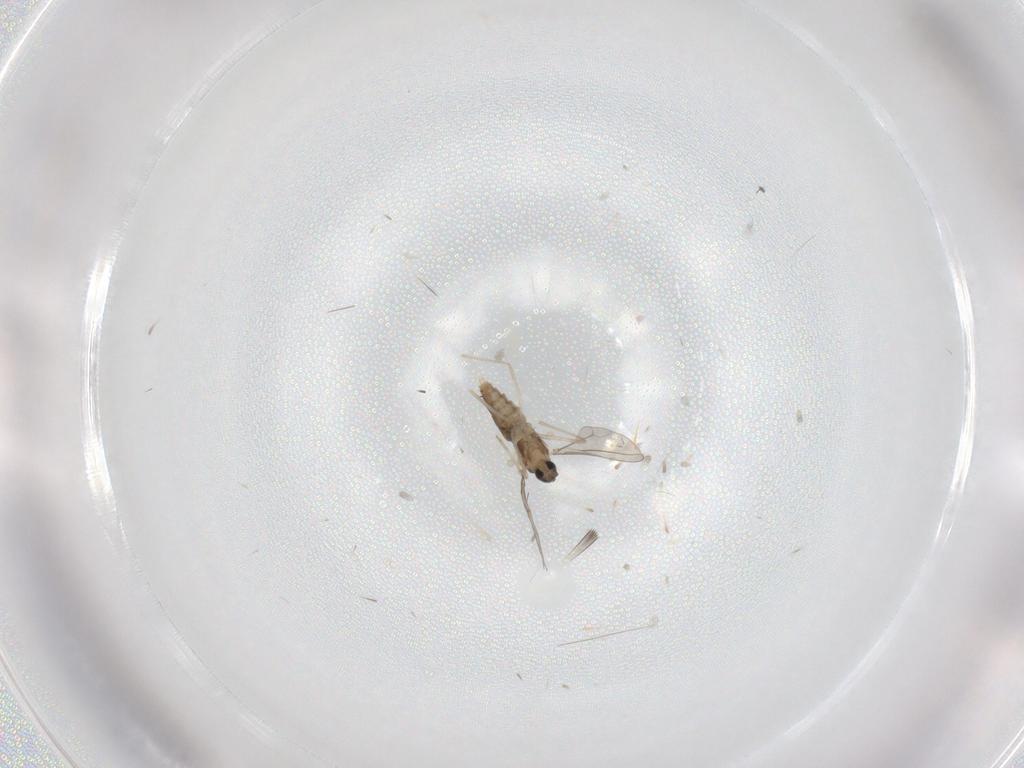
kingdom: Animalia
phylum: Arthropoda
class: Insecta
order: Diptera
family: Ceratopogonidae
